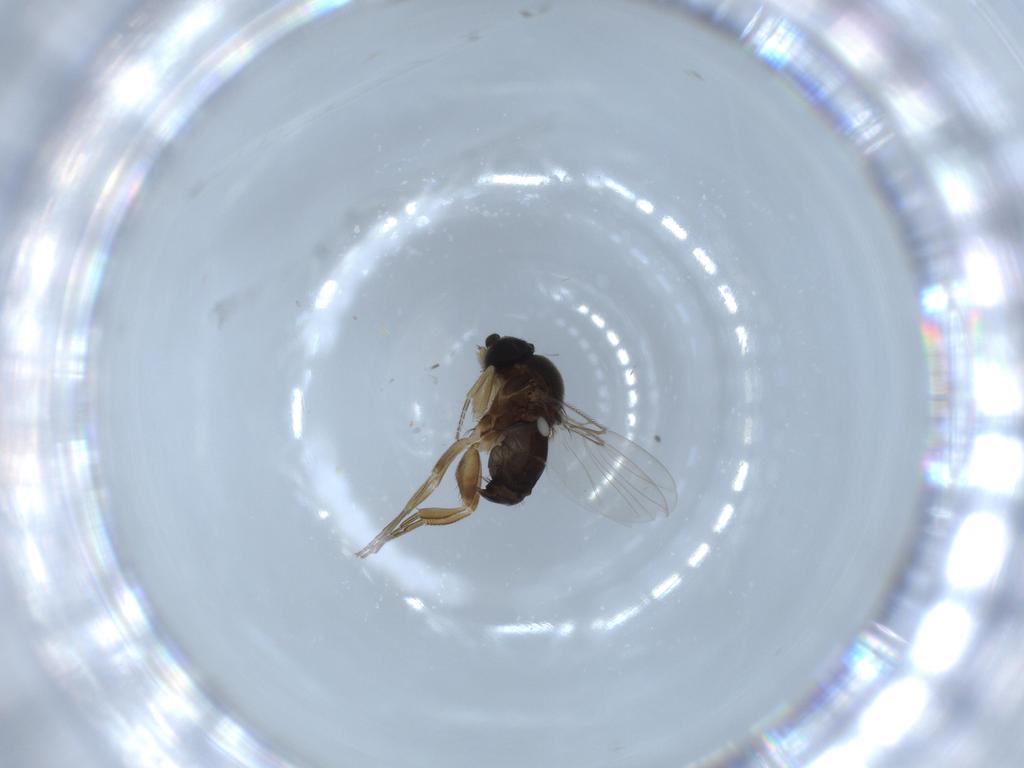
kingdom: Animalia
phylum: Arthropoda
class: Insecta
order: Diptera
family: Phoridae
